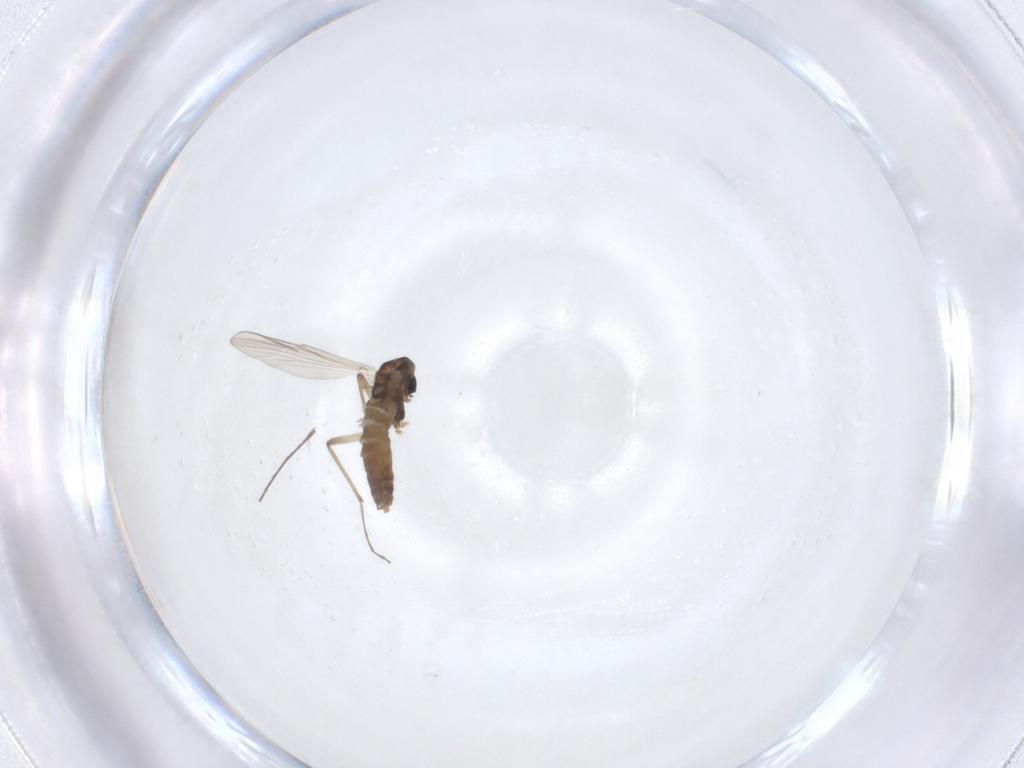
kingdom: Animalia
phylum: Arthropoda
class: Insecta
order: Diptera
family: Chironomidae
